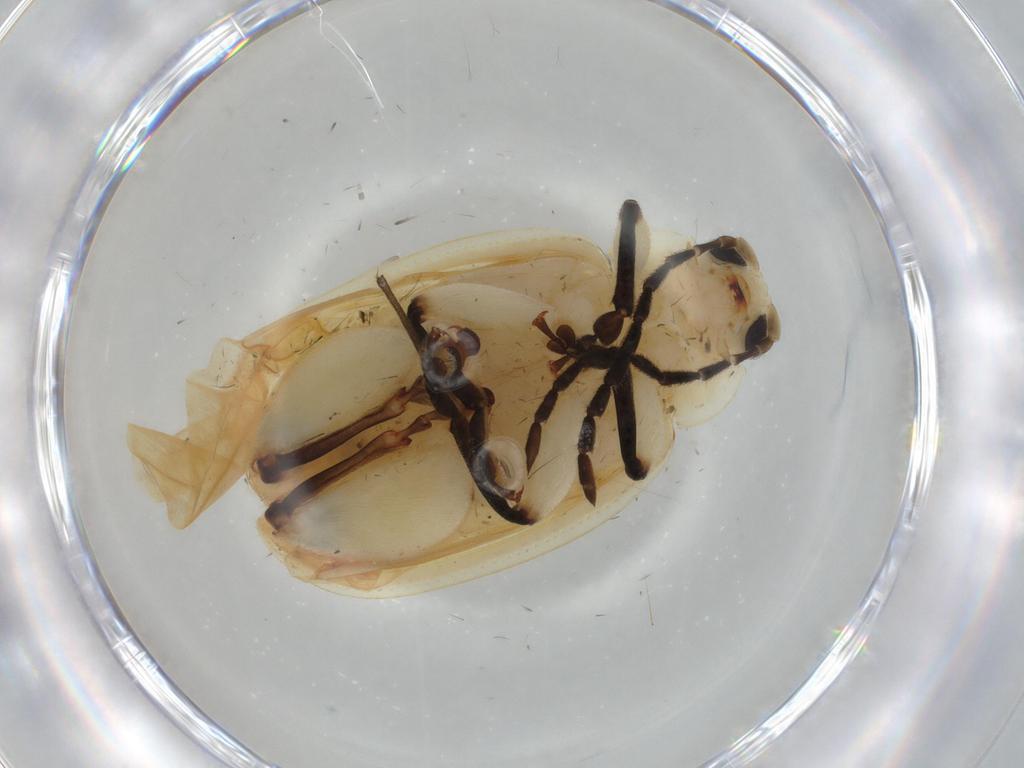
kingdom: Animalia
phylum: Arthropoda
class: Insecta
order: Coleoptera
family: Chrysomelidae
